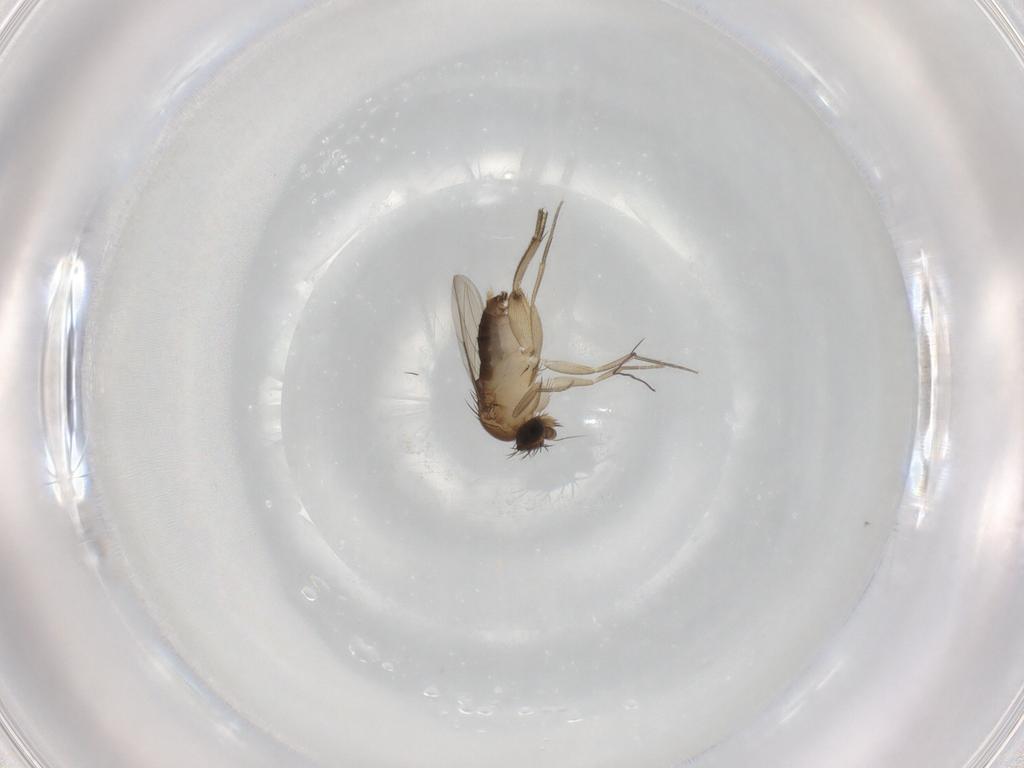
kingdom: Animalia
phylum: Arthropoda
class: Insecta
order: Diptera
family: Phoridae
